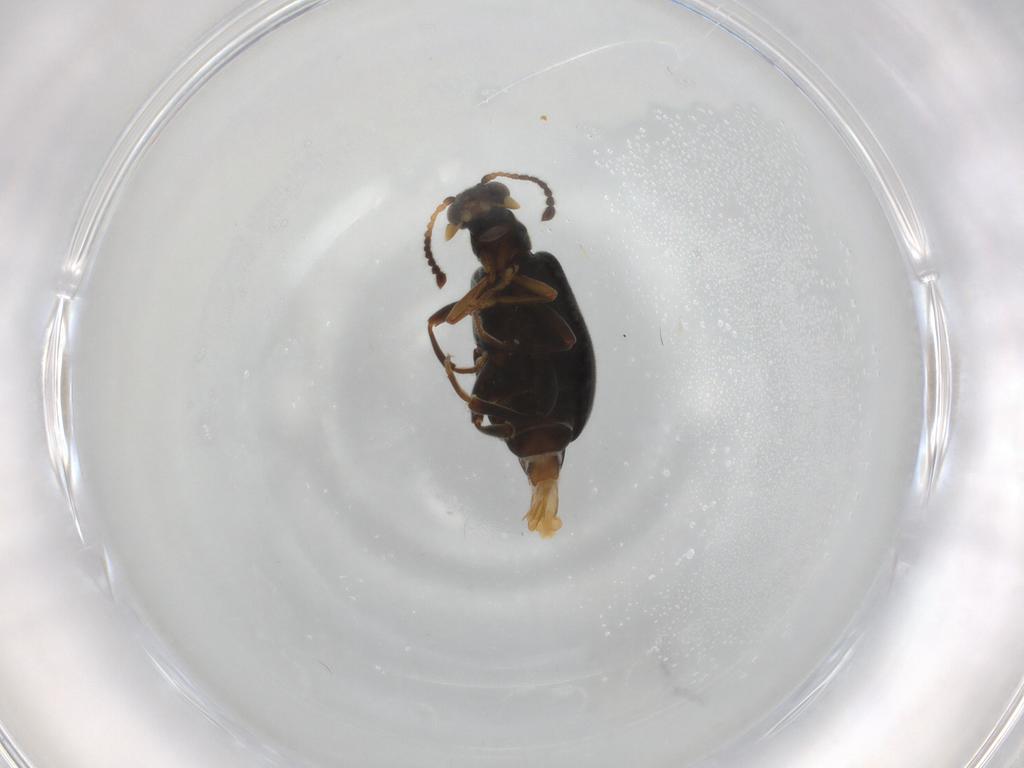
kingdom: Animalia
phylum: Arthropoda
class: Insecta
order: Coleoptera
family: Aderidae
